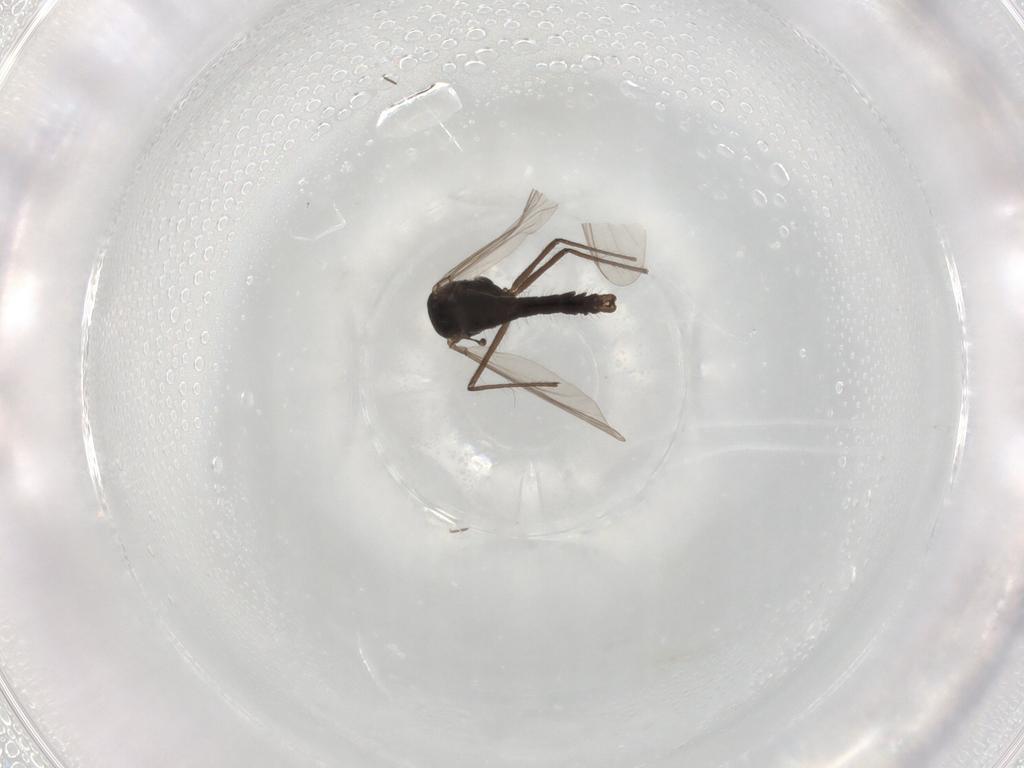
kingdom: Animalia
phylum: Arthropoda
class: Insecta
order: Diptera
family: Chironomidae
